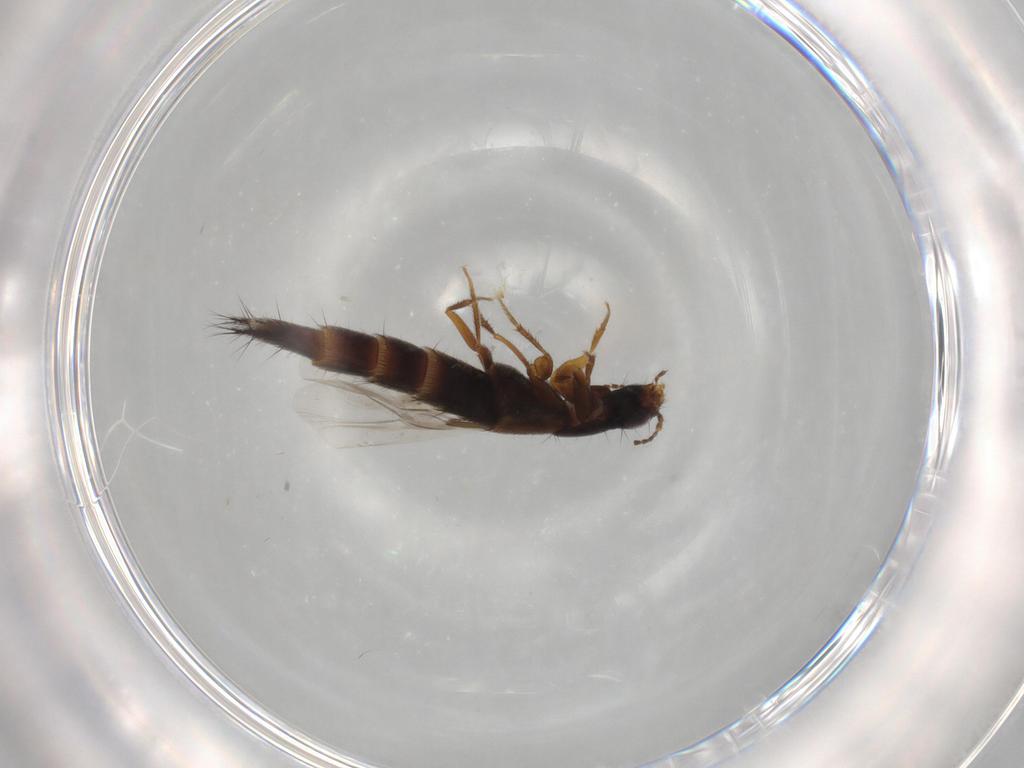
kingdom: Animalia
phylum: Arthropoda
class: Insecta
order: Coleoptera
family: Staphylinidae
